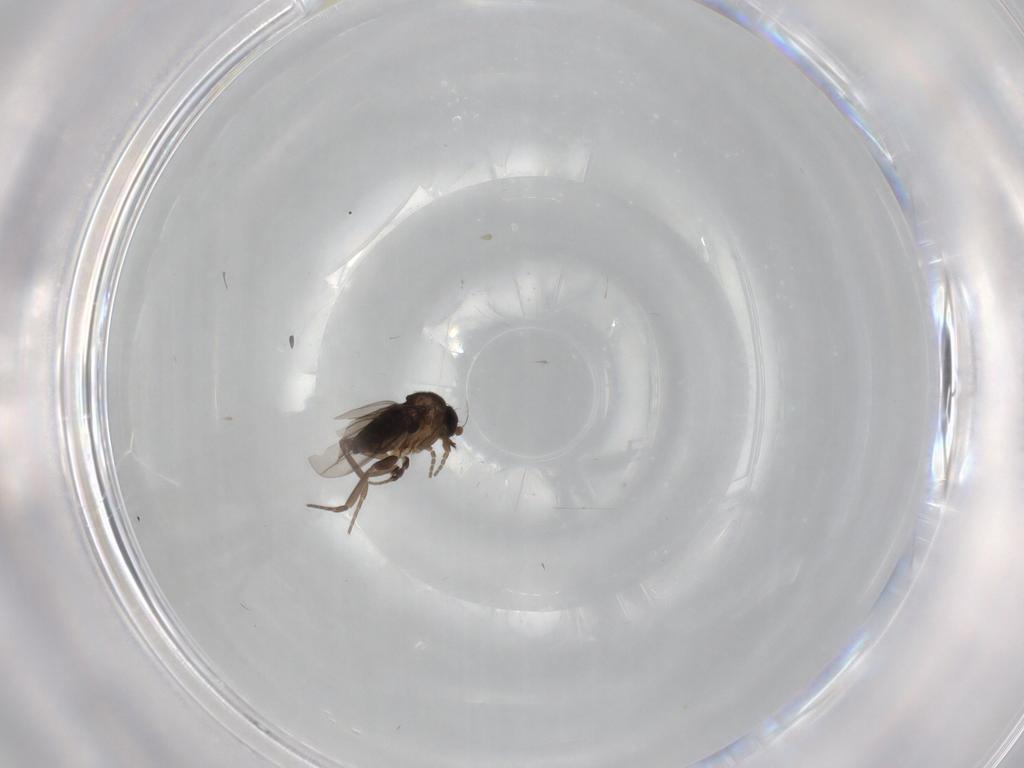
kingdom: Animalia
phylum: Arthropoda
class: Insecta
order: Diptera
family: Phoridae
